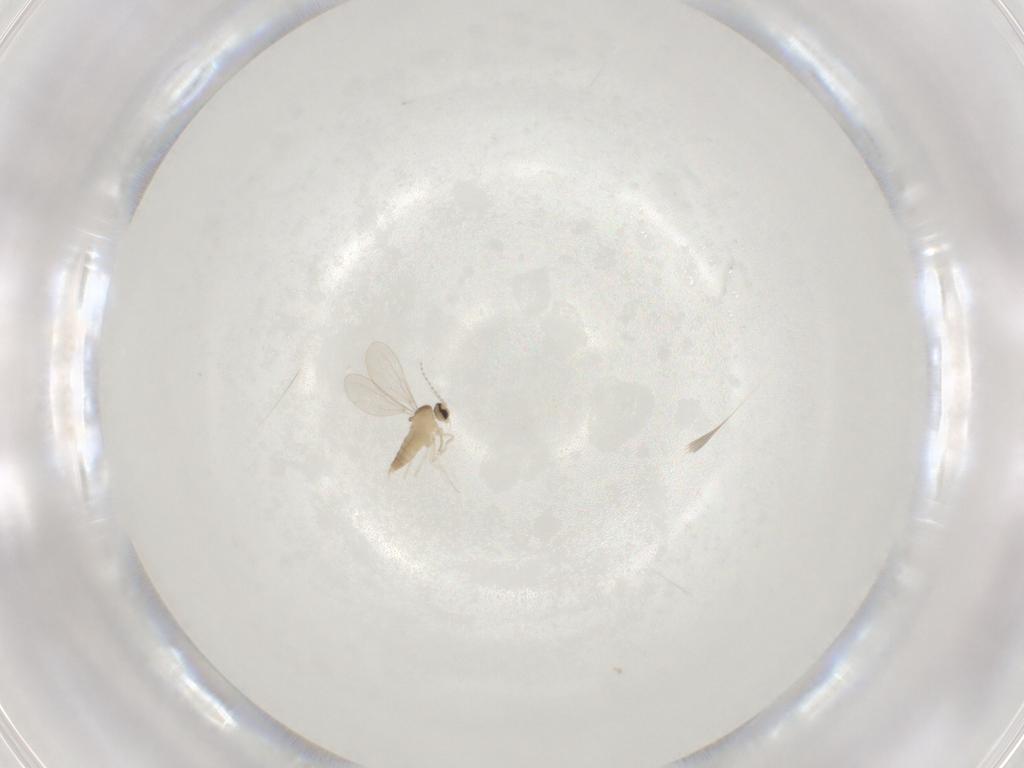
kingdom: Animalia
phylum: Arthropoda
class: Insecta
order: Diptera
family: Cecidomyiidae
